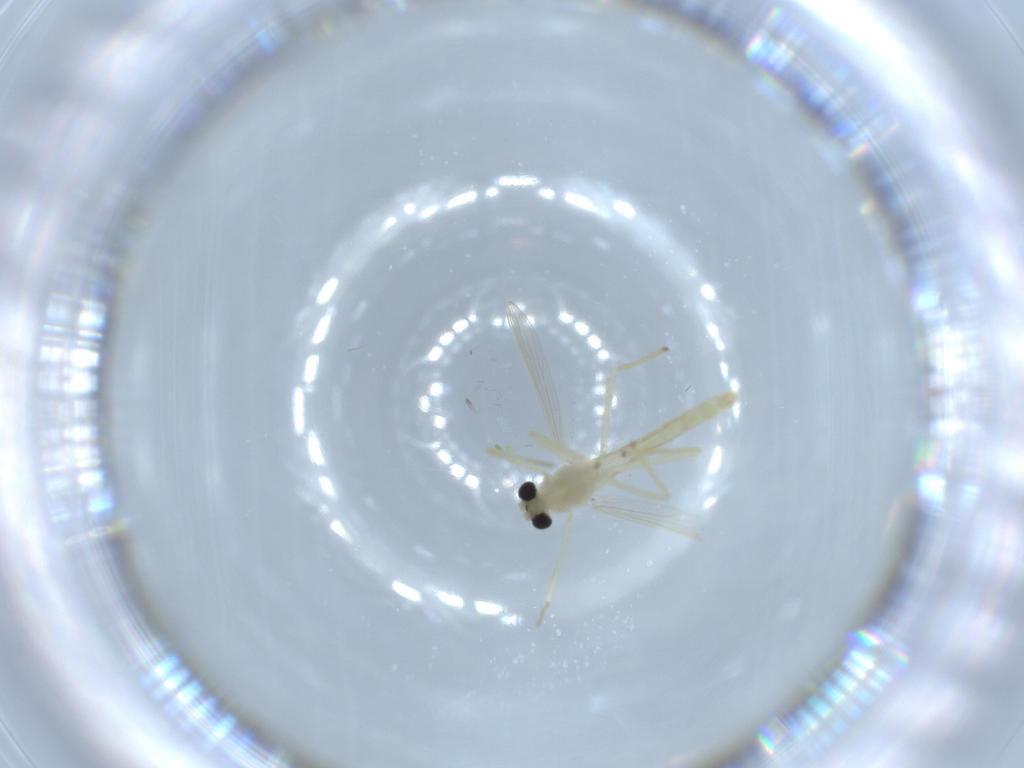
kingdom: Animalia
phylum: Arthropoda
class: Insecta
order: Diptera
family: Chironomidae
